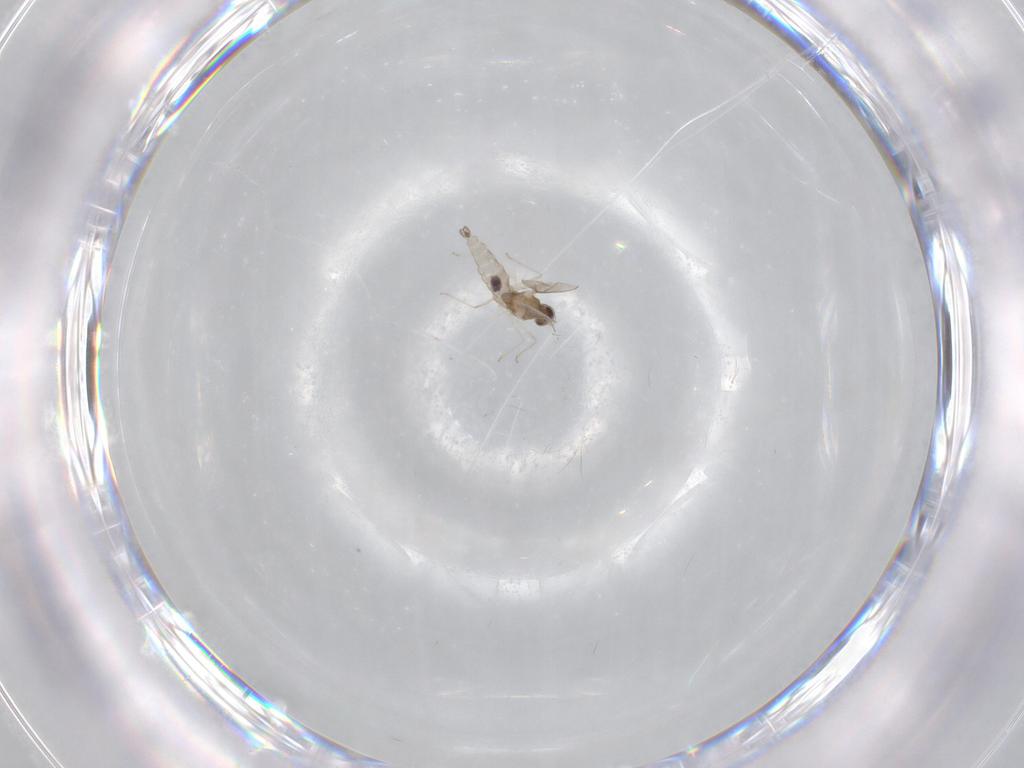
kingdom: Animalia
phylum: Arthropoda
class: Insecta
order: Diptera
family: Cecidomyiidae
